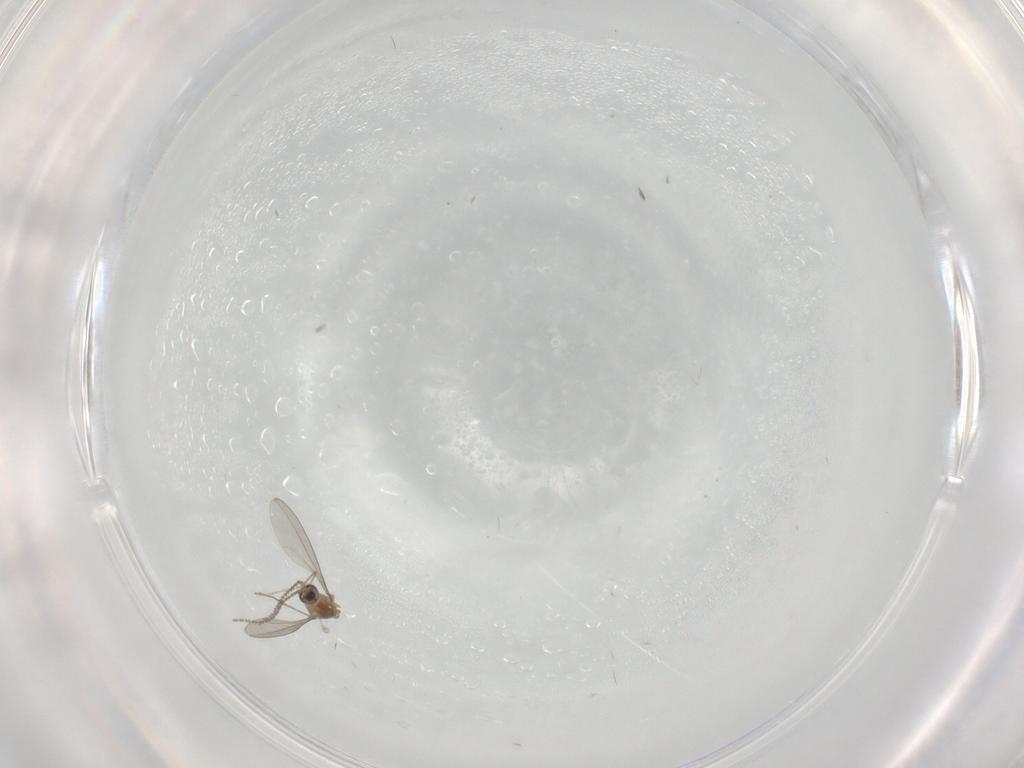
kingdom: Animalia
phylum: Arthropoda
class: Insecta
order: Diptera
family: Cecidomyiidae
